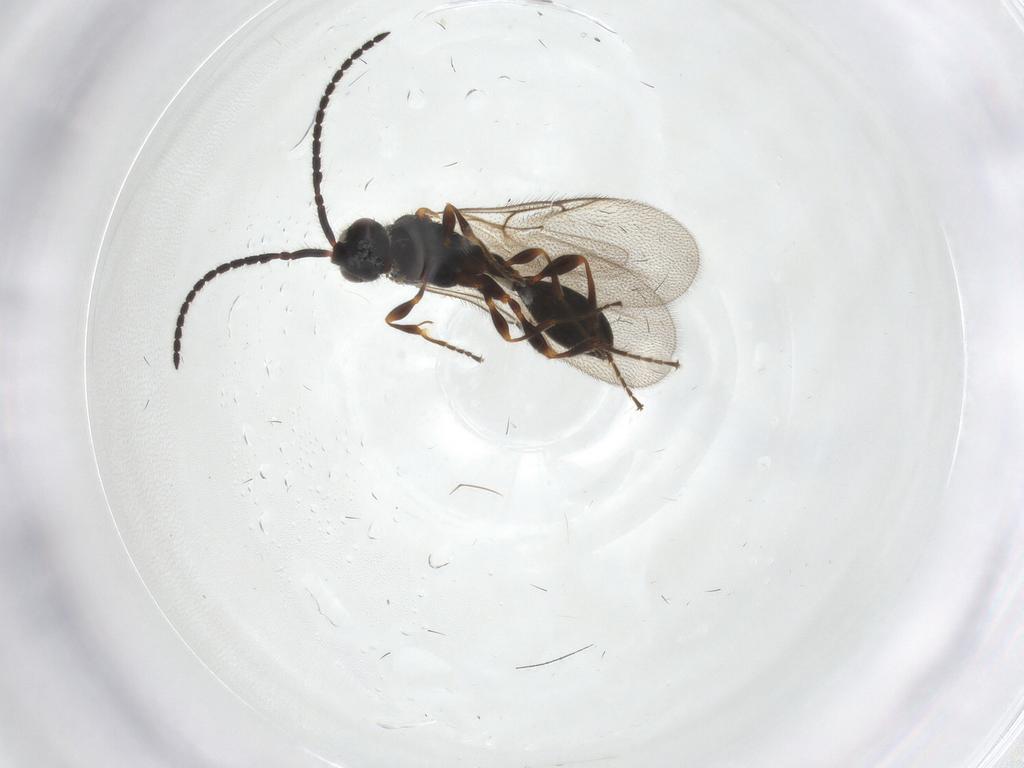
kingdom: Animalia
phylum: Arthropoda
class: Insecta
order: Hymenoptera
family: Diapriidae
